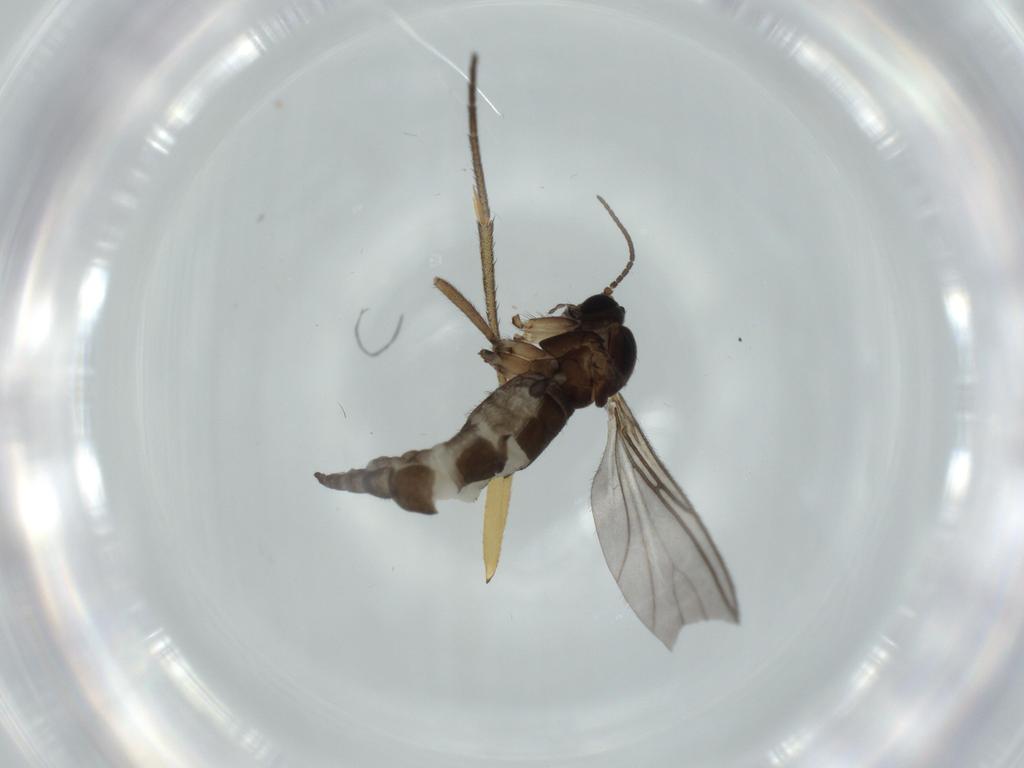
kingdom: Animalia
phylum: Arthropoda
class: Insecta
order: Diptera
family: Sciaridae
